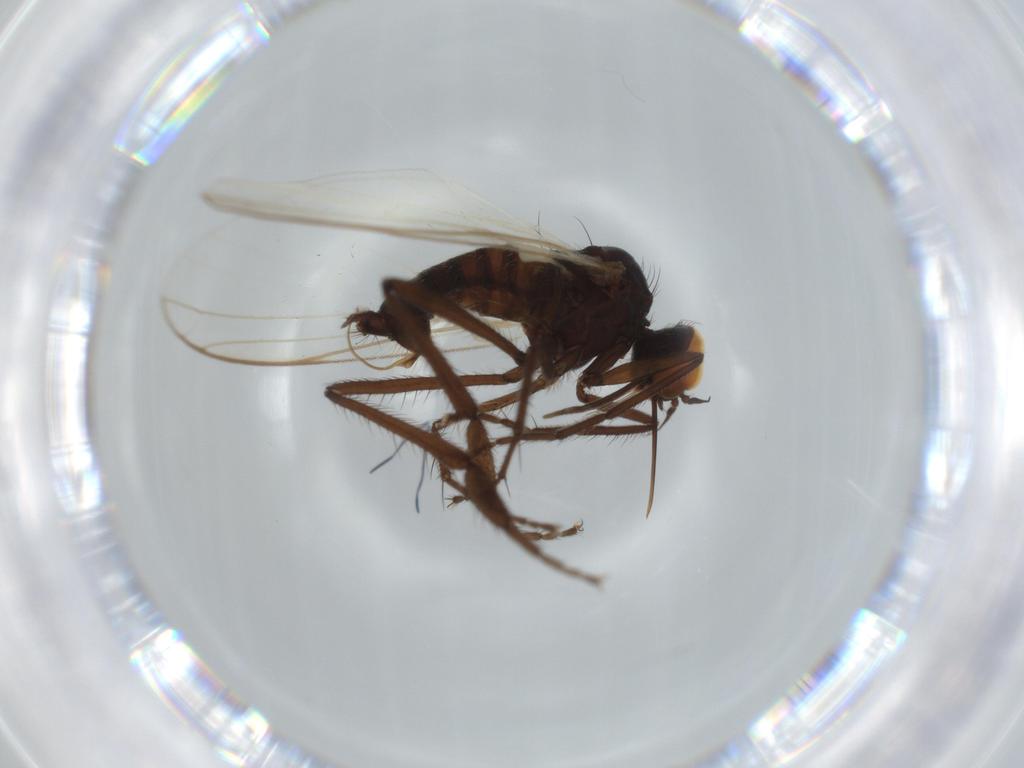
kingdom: Animalia
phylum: Arthropoda
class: Insecta
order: Diptera
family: Empididae
